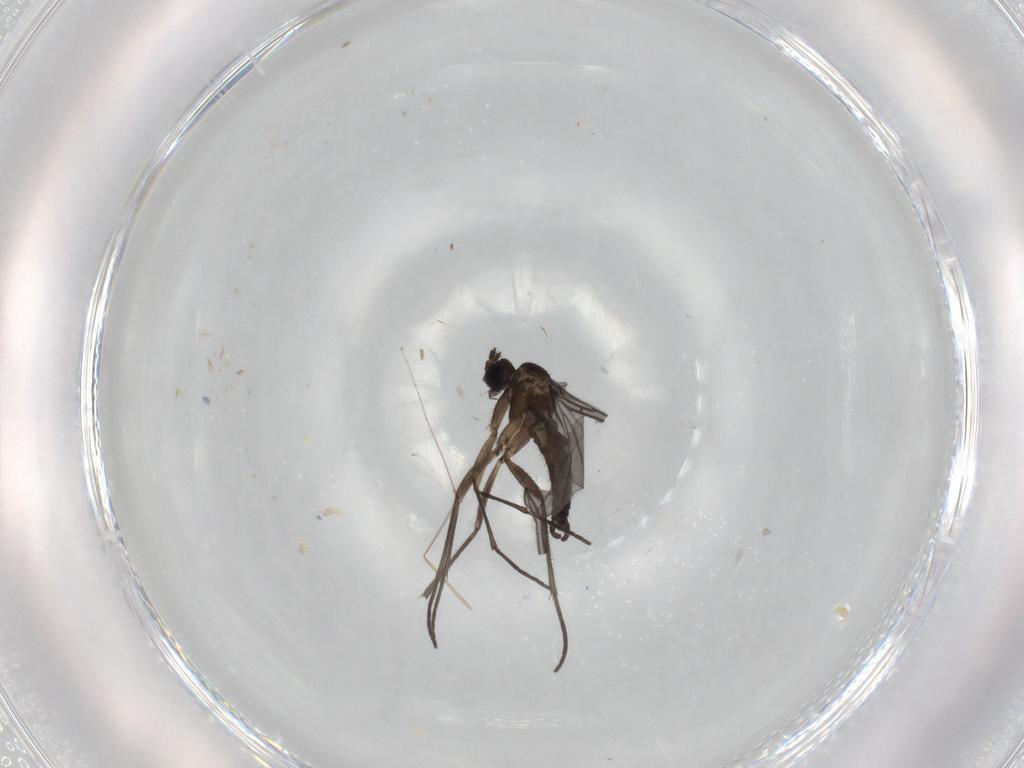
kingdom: Animalia
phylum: Arthropoda
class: Insecta
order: Diptera
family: Sciaridae
